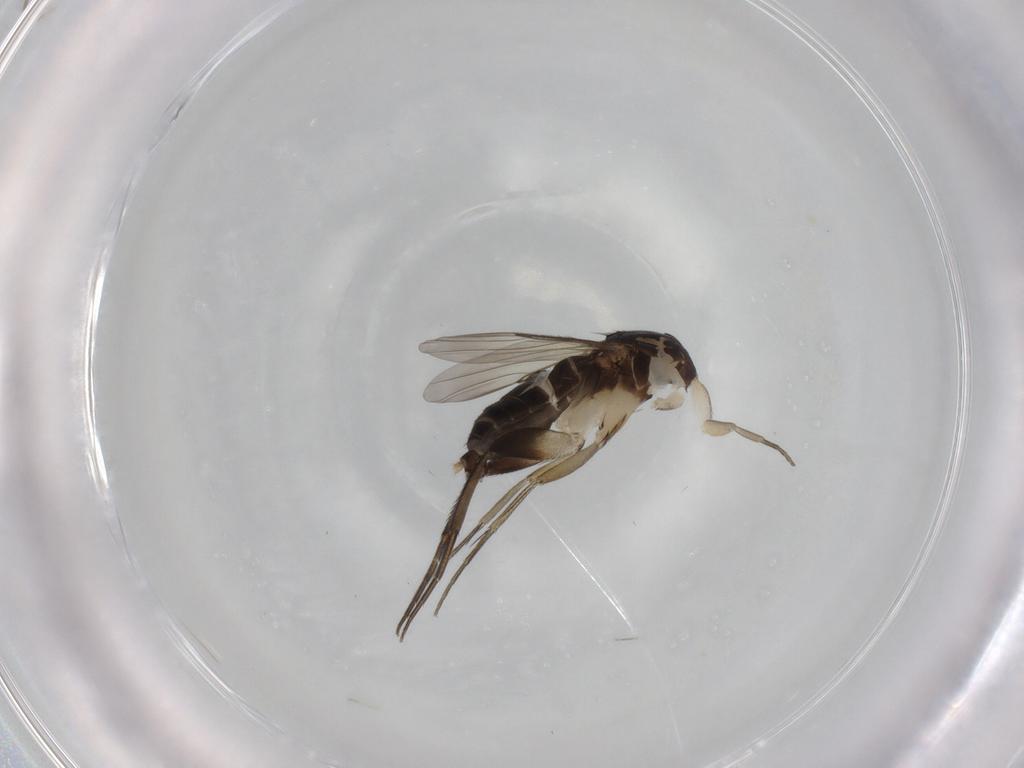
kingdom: Animalia
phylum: Arthropoda
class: Insecta
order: Diptera
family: Phoridae
